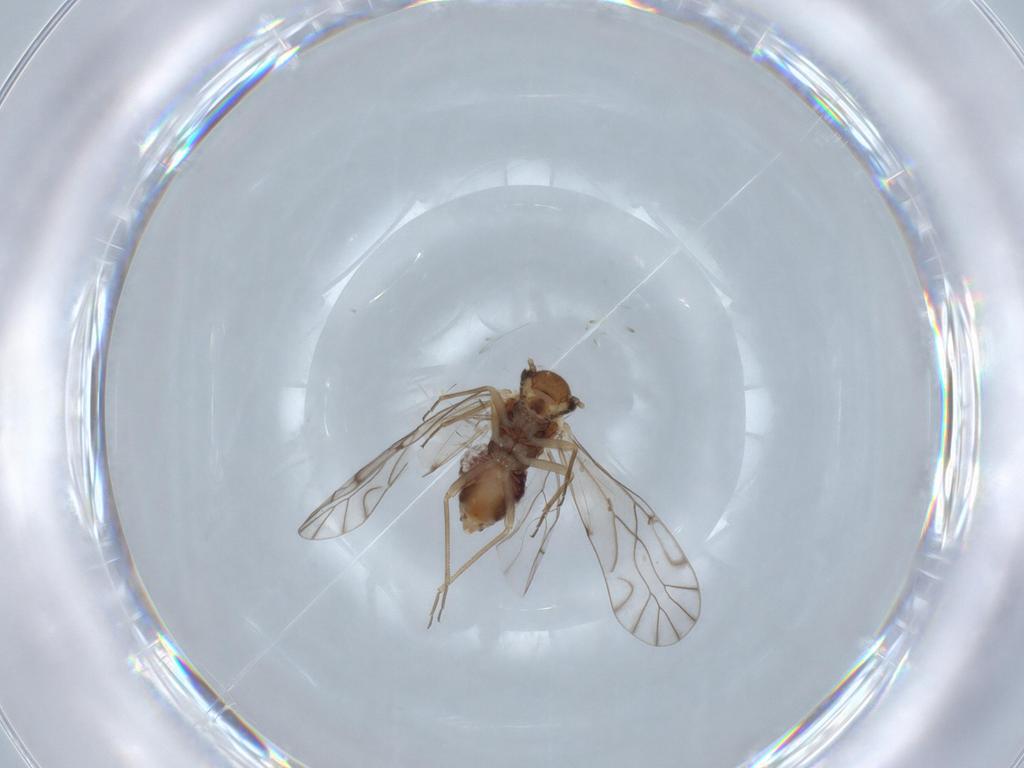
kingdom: Animalia
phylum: Arthropoda
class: Insecta
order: Psocodea
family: Lachesillidae
